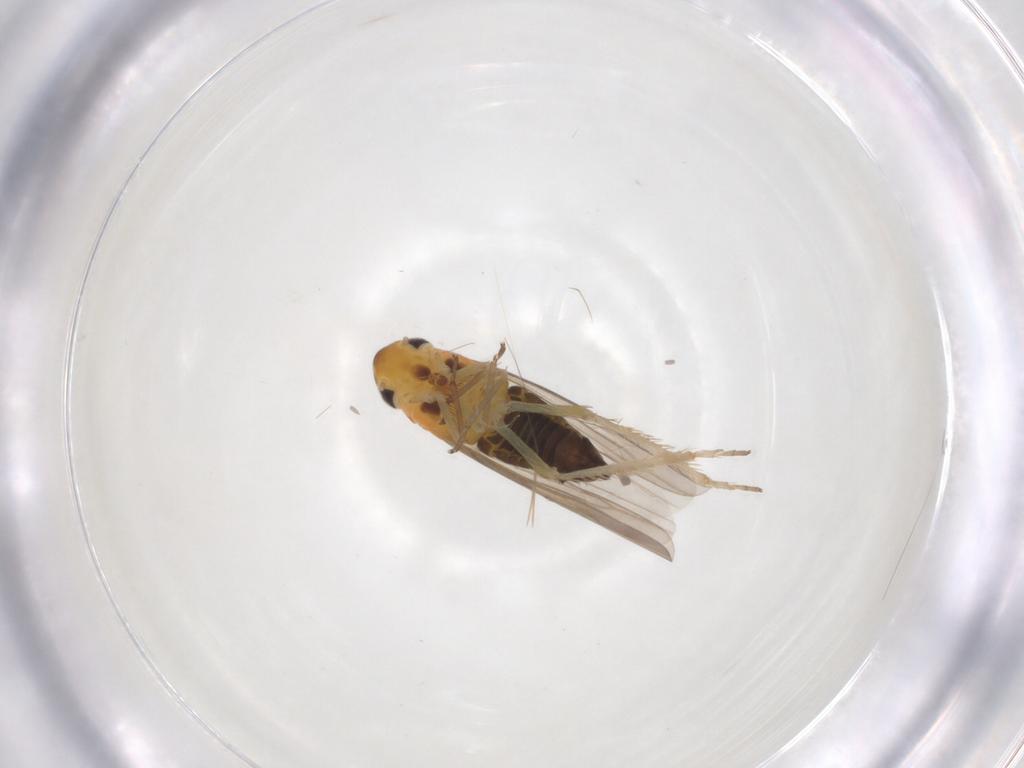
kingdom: Animalia
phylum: Arthropoda
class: Insecta
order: Hemiptera
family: Cicadellidae
